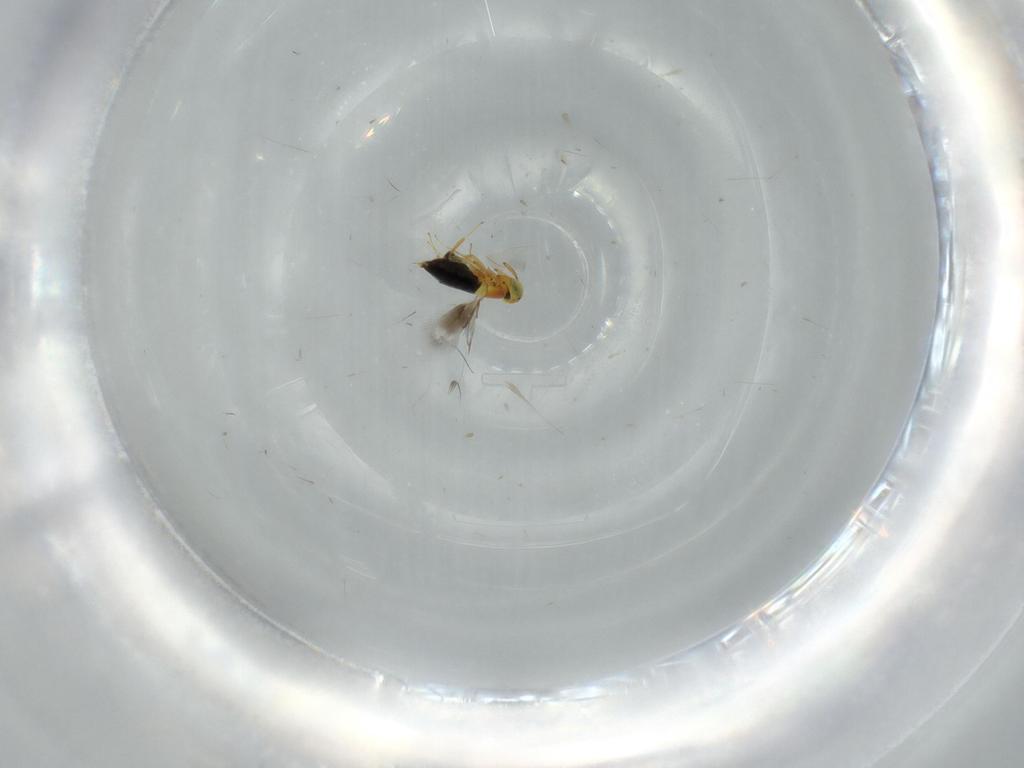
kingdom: Animalia
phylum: Arthropoda
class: Insecta
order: Hymenoptera
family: Signiphoridae
